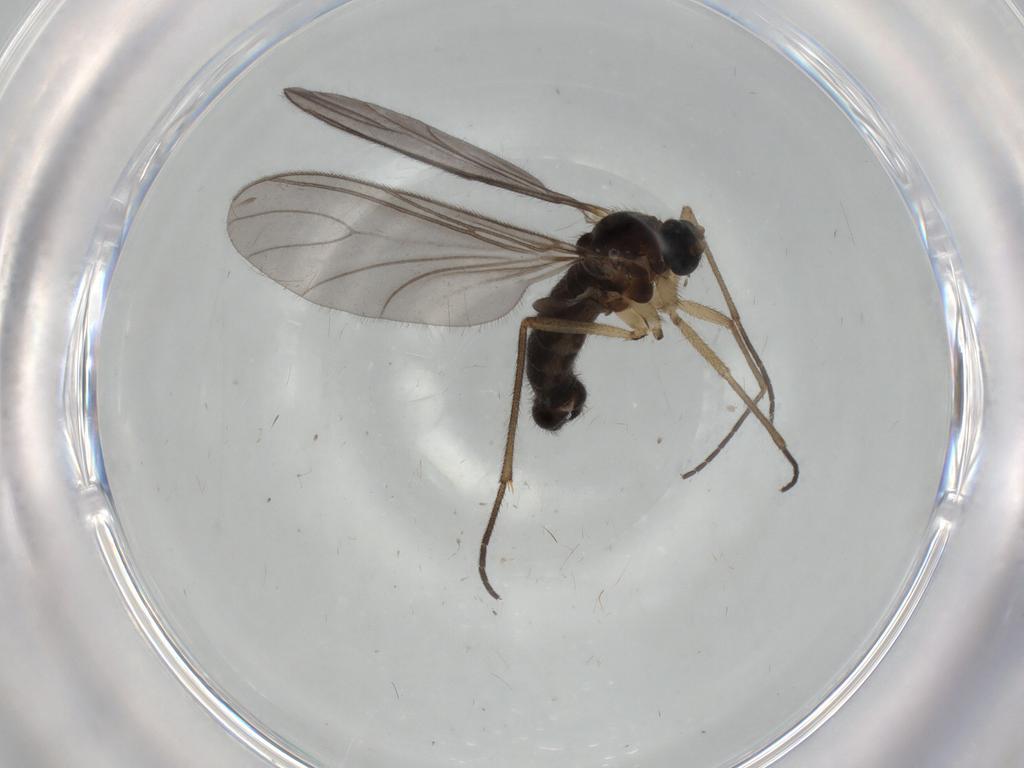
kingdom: Animalia
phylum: Arthropoda
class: Insecta
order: Diptera
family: Sciaridae
